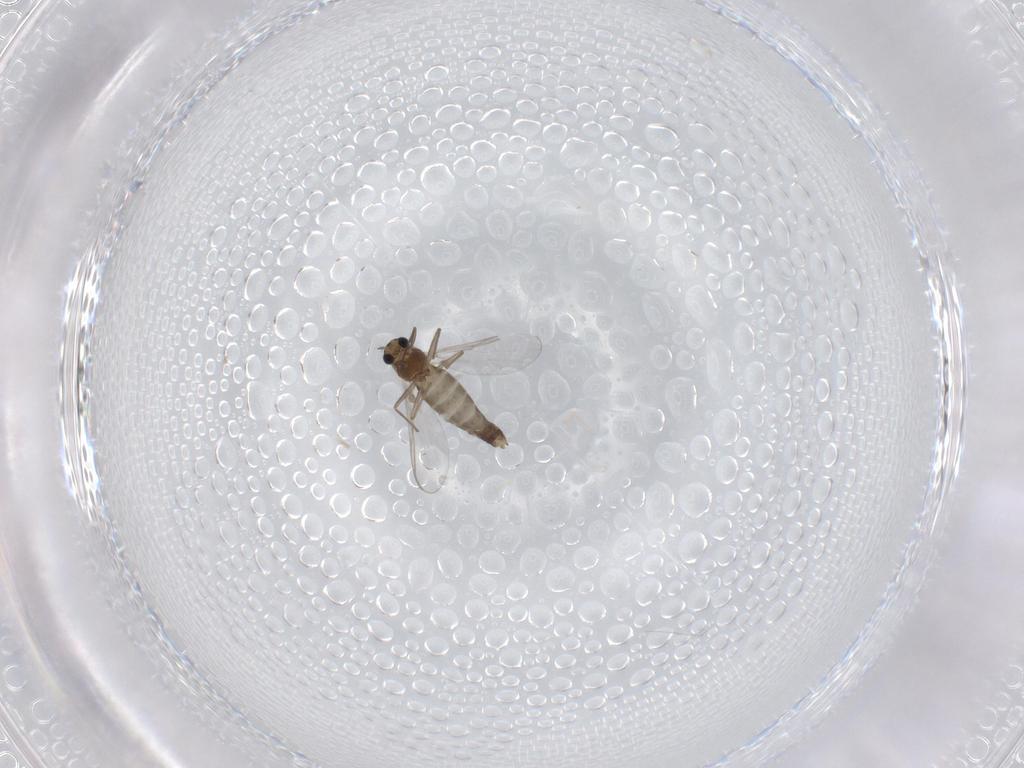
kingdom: Animalia
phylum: Arthropoda
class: Insecta
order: Diptera
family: Chironomidae
